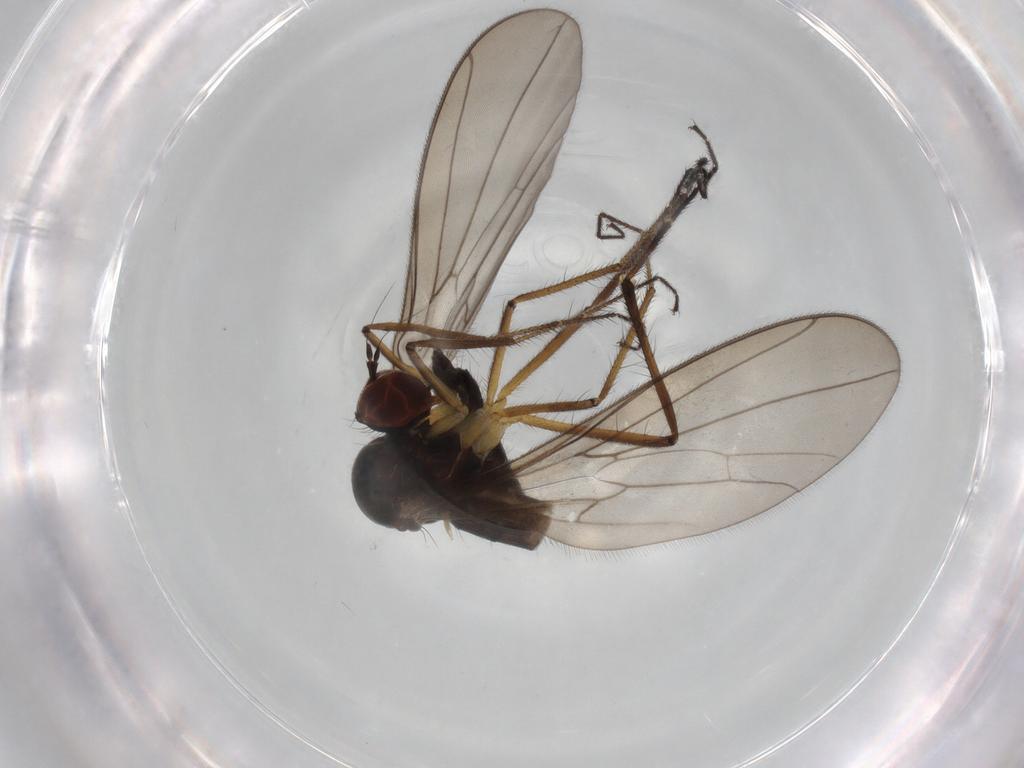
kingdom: Animalia
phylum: Arthropoda
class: Insecta
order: Diptera
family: Hybotidae
